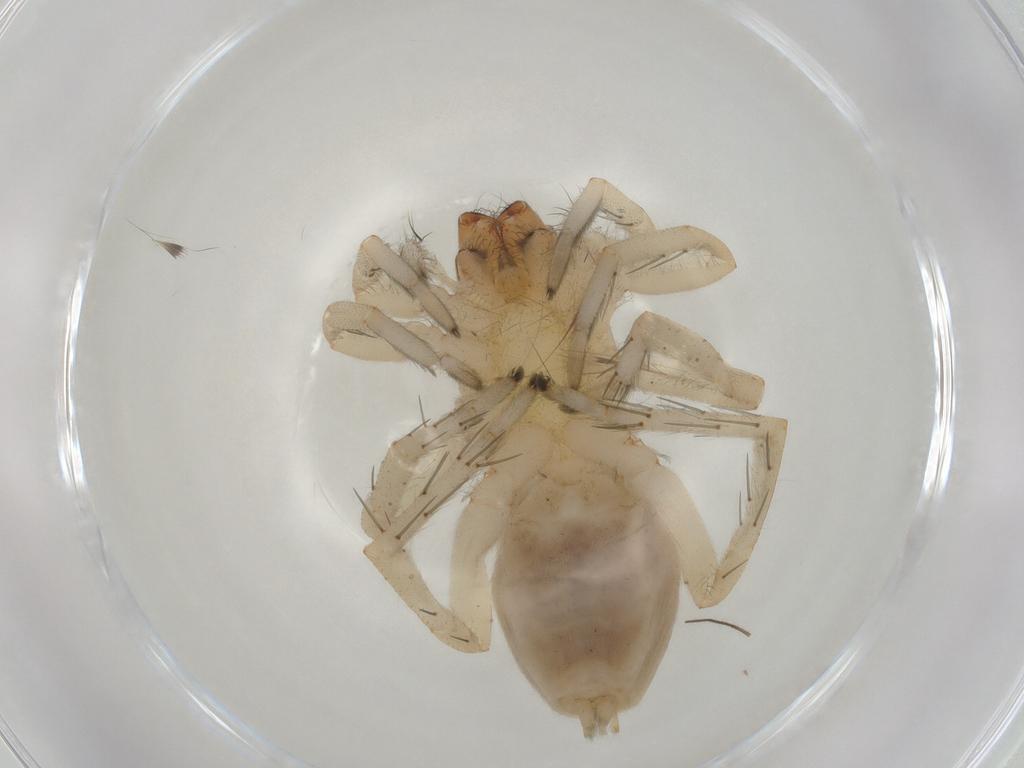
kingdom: Animalia
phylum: Arthropoda
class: Arachnida
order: Araneae
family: Clubionidae
